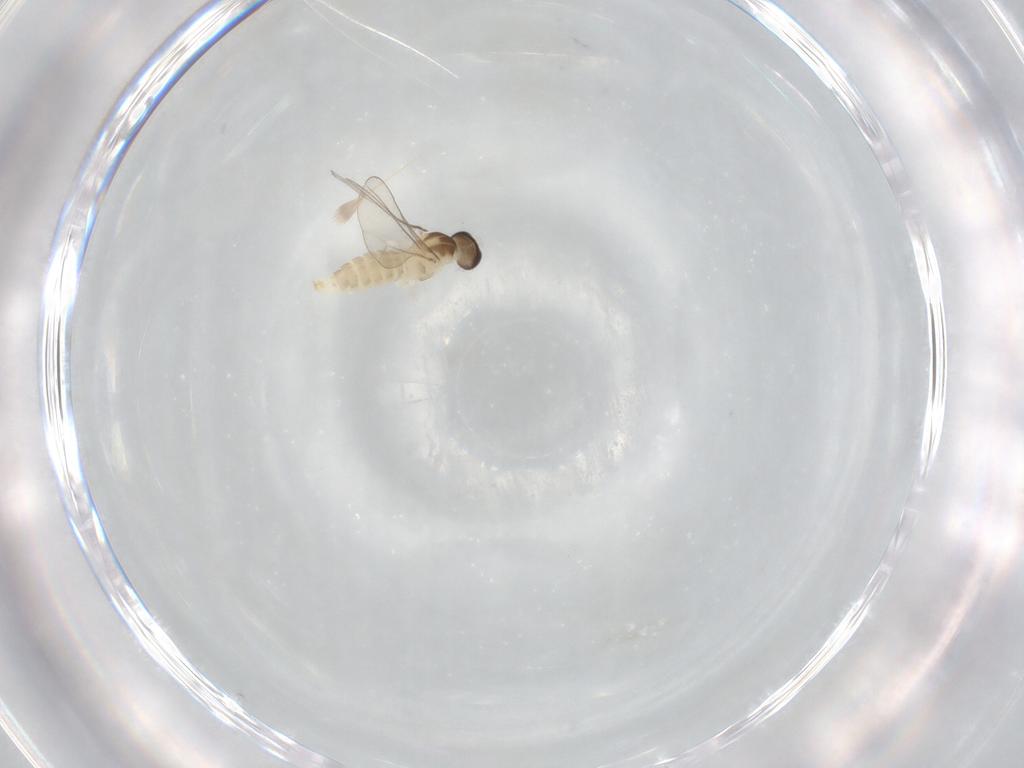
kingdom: Animalia
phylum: Arthropoda
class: Insecta
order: Diptera
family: Cecidomyiidae
